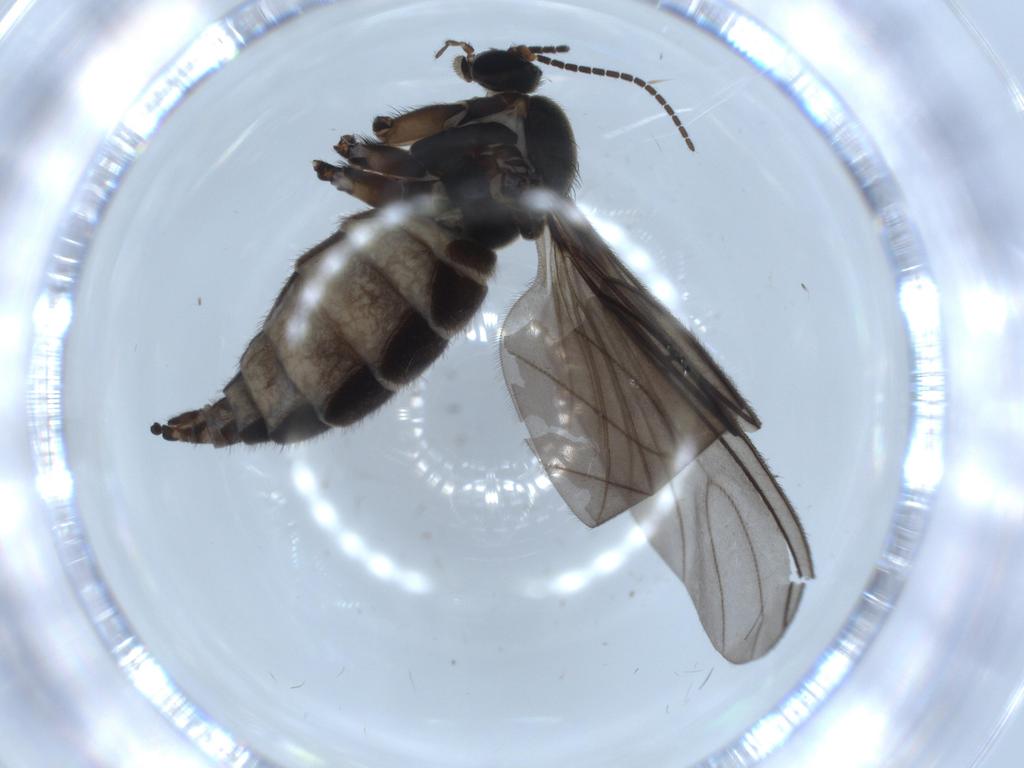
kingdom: Animalia
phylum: Arthropoda
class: Insecta
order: Diptera
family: Sciaridae
